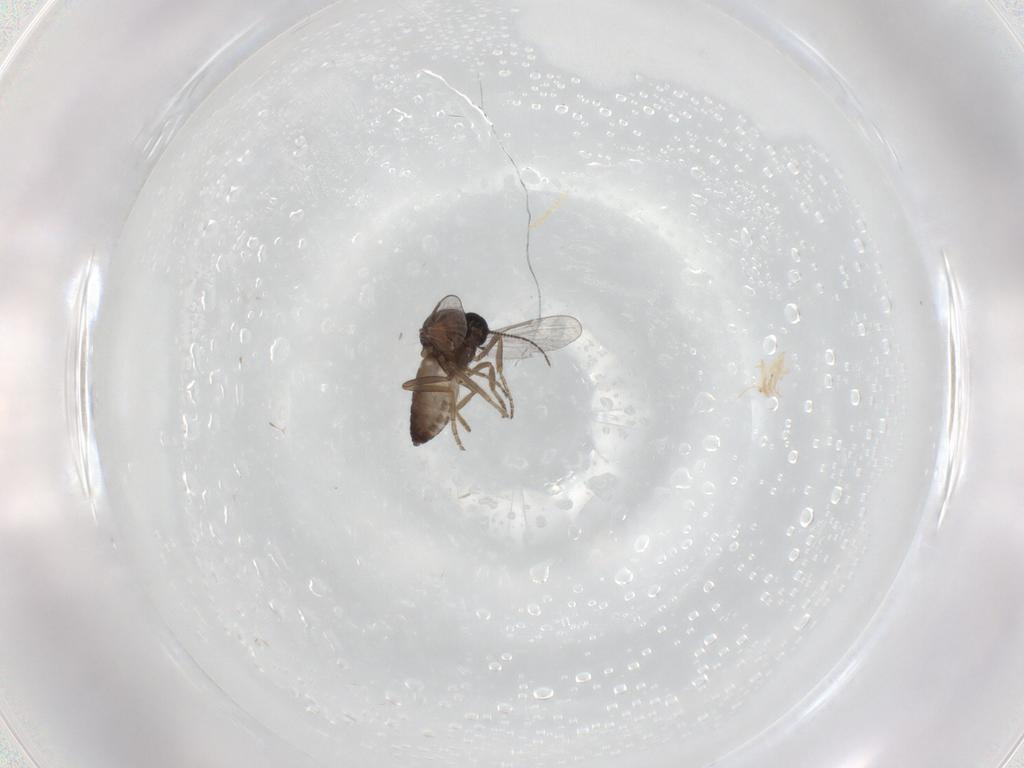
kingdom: Animalia
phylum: Arthropoda
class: Insecta
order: Diptera
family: Ceratopogonidae
